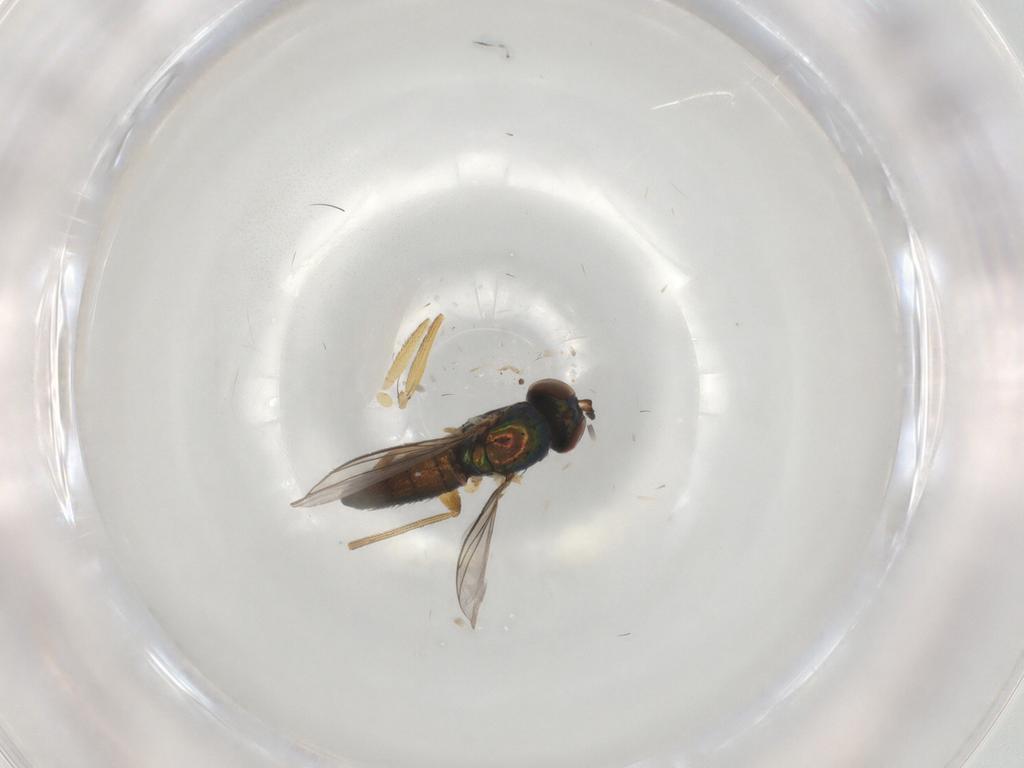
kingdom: Animalia
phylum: Arthropoda
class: Insecta
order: Diptera
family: Dolichopodidae
